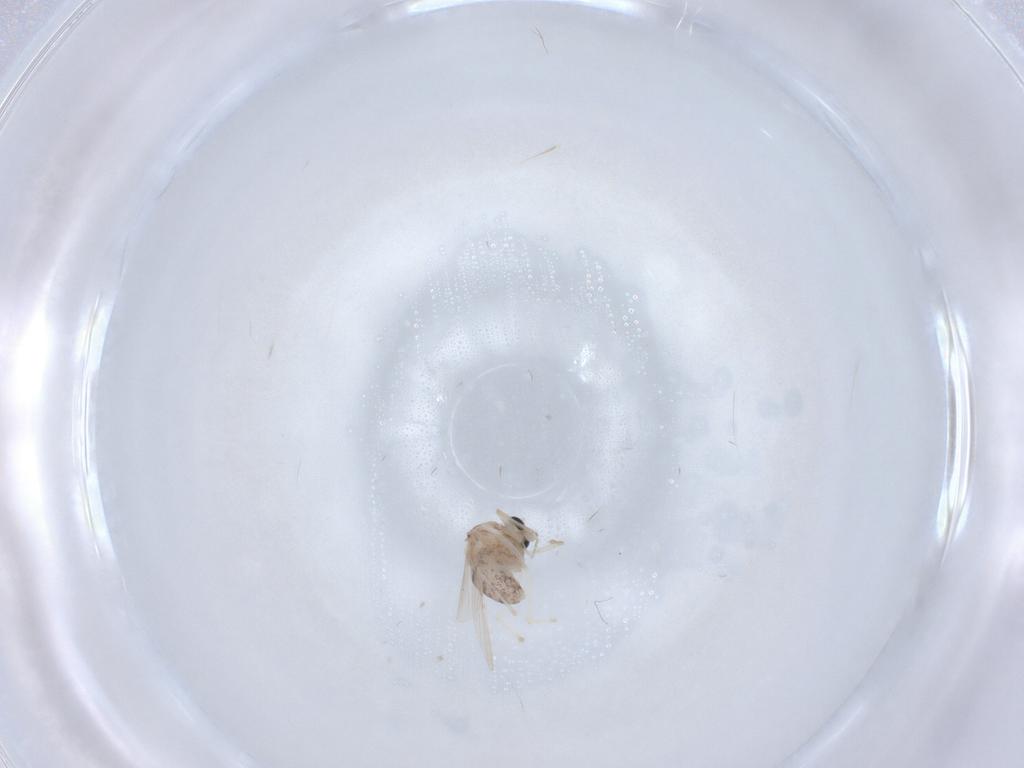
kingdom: Animalia
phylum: Arthropoda
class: Insecta
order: Diptera
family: Chironomidae
